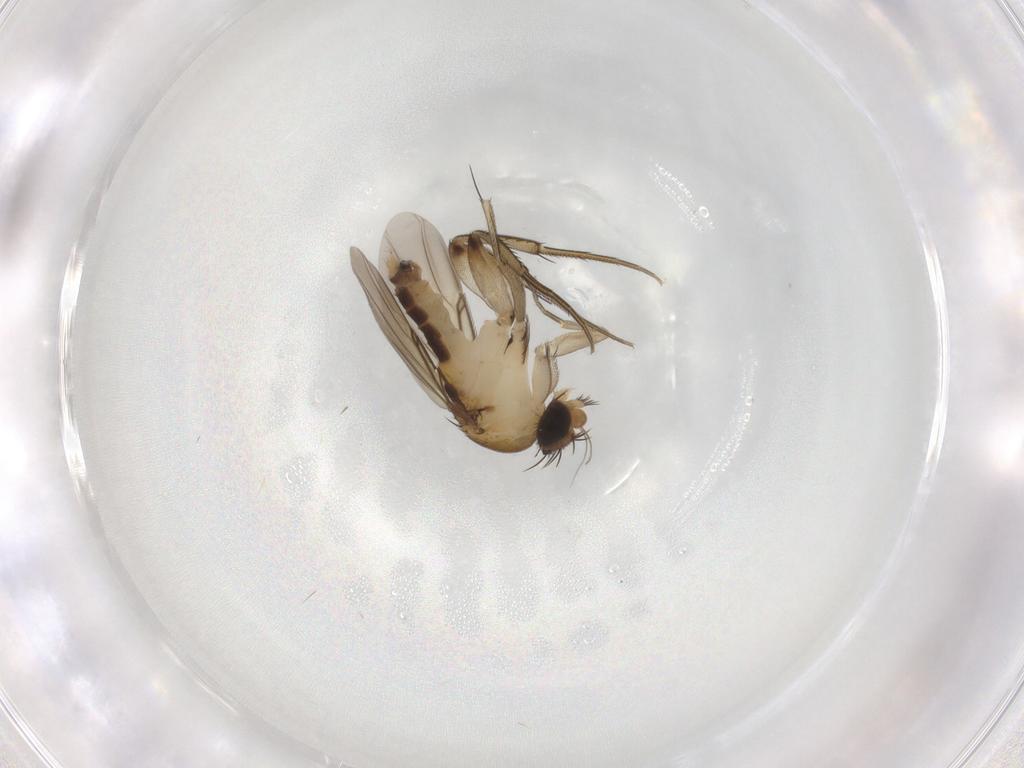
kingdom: Animalia
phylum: Arthropoda
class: Insecta
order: Diptera
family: Phoridae
